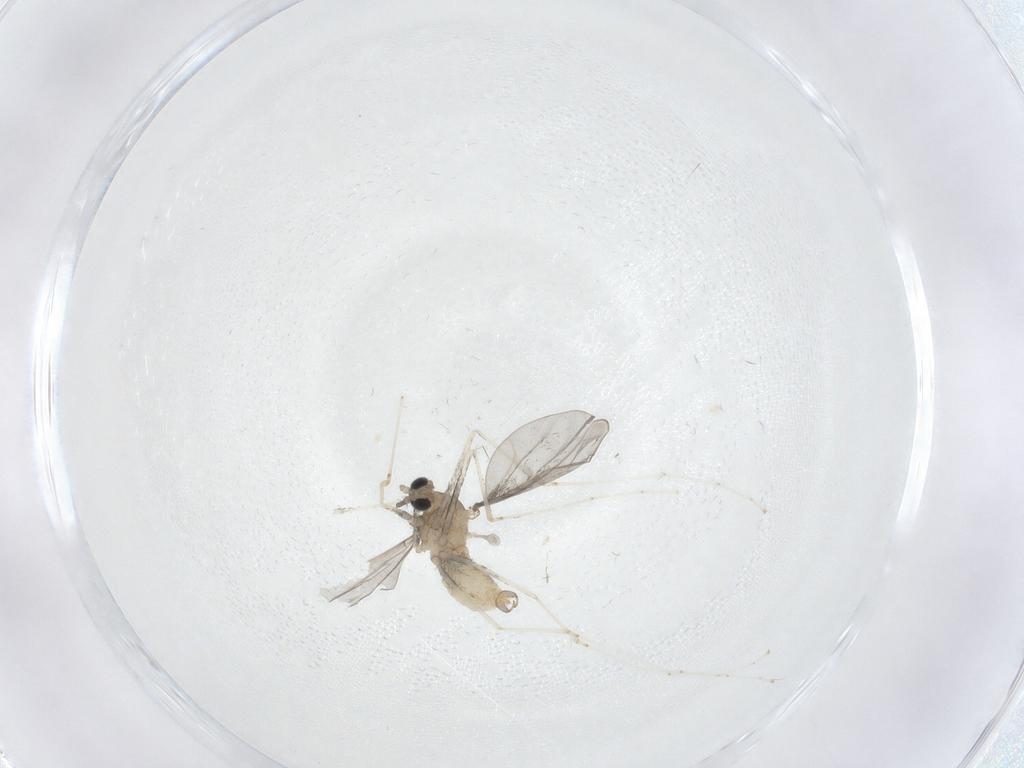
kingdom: Animalia
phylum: Arthropoda
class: Insecta
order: Diptera
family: Cecidomyiidae
